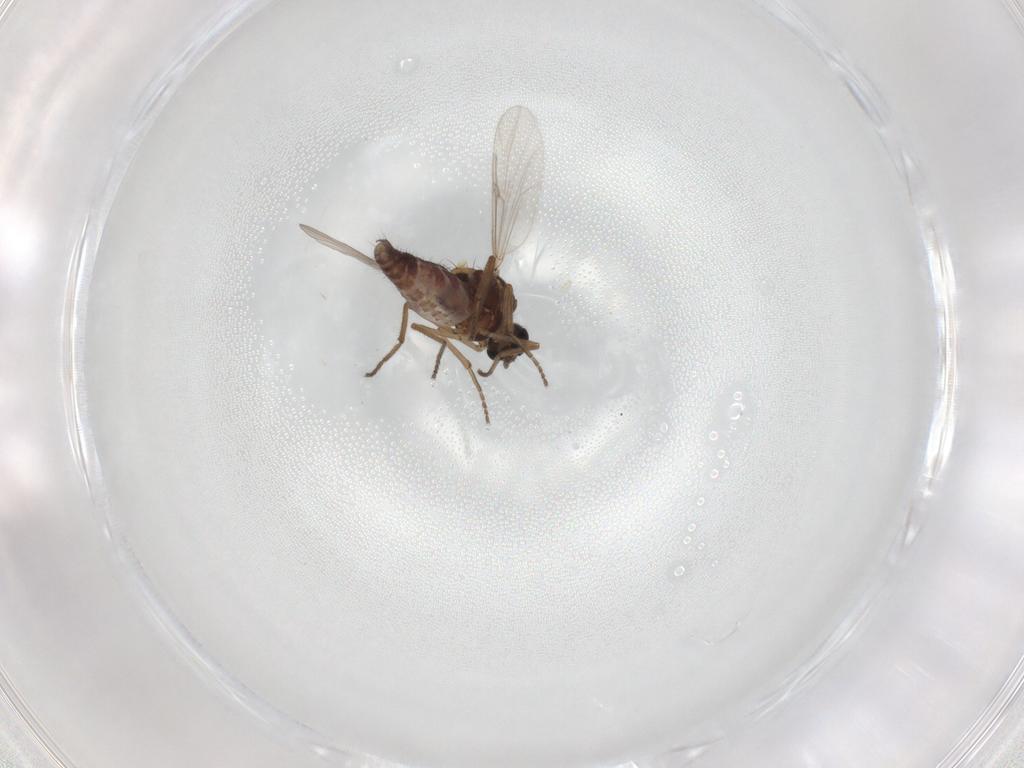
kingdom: Animalia
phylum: Arthropoda
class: Insecta
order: Diptera
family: Ceratopogonidae
